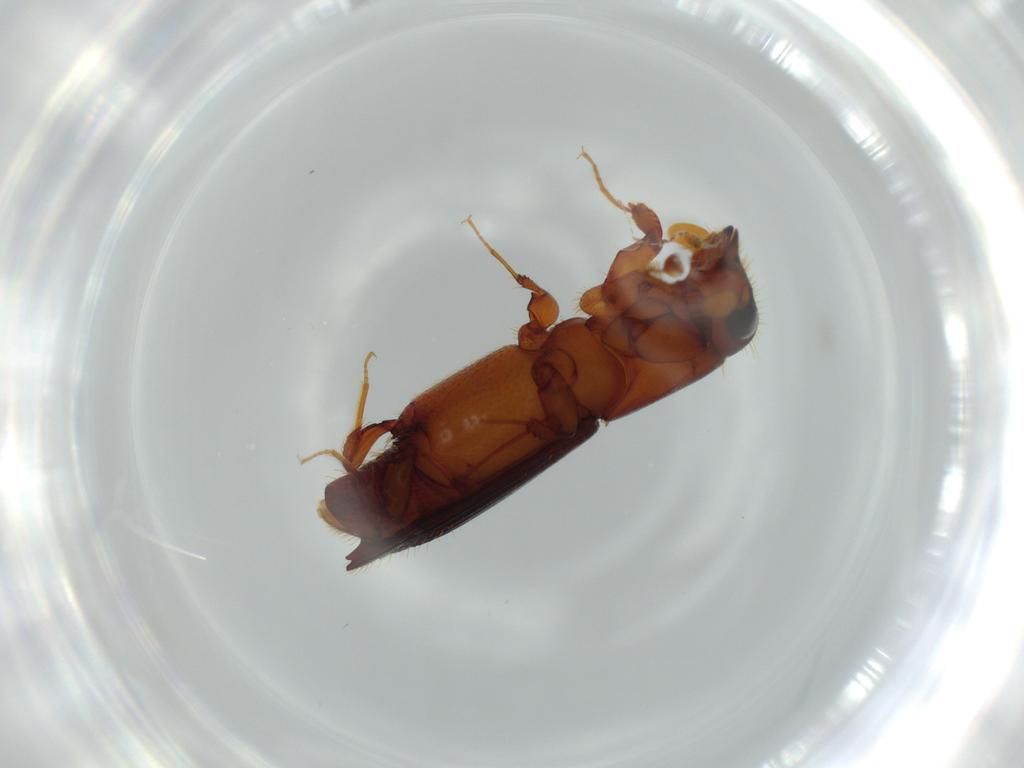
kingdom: Animalia
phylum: Arthropoda
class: Insecta
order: Coleoptera
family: Curculionidae
